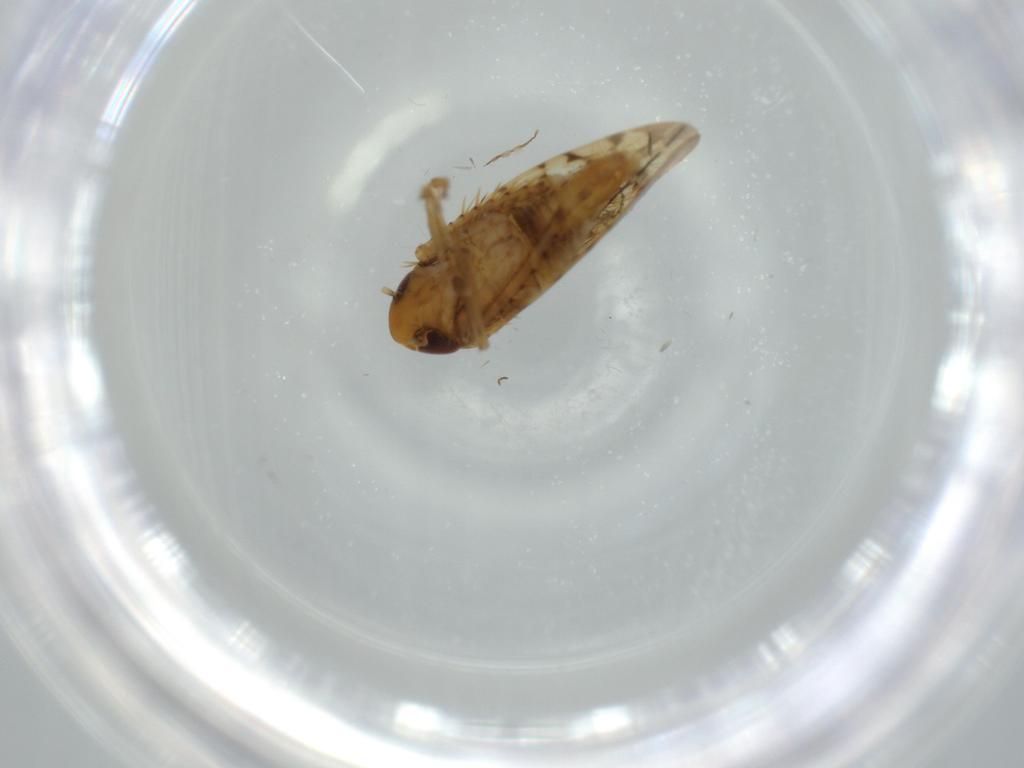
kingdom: Animalia
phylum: Arthropoda
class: Insecta
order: Hemiptera
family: Cicadellidae
